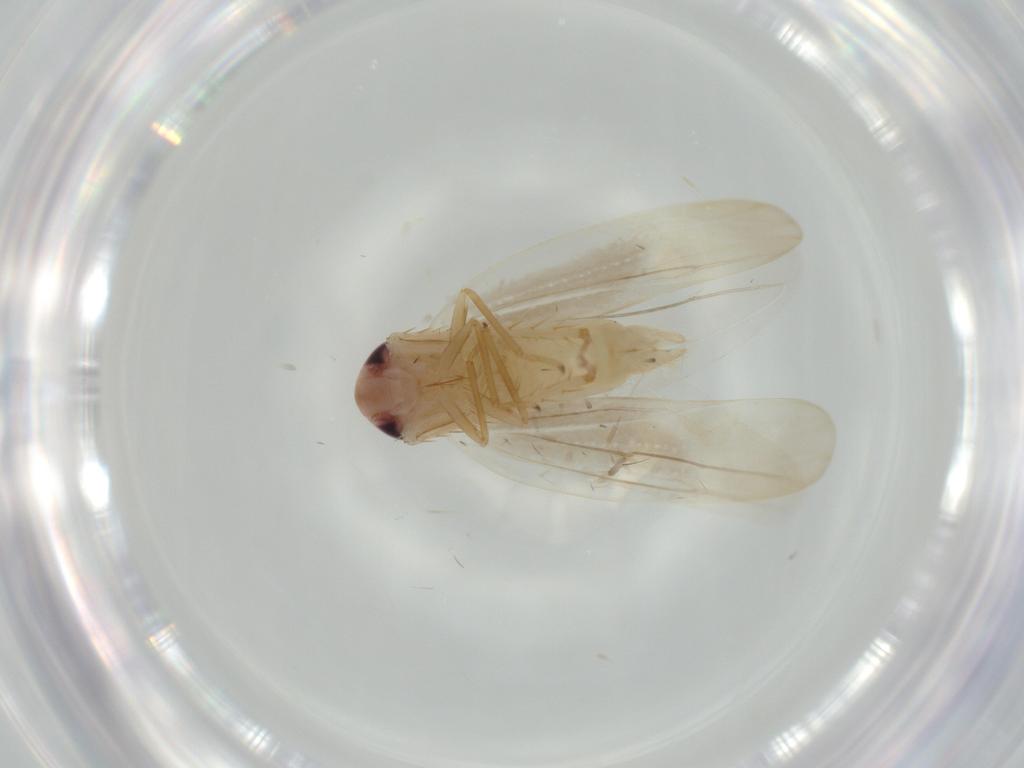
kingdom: Animalia
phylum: Arthropoda
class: Insecta
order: Hemiptera
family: Cicadellidae
